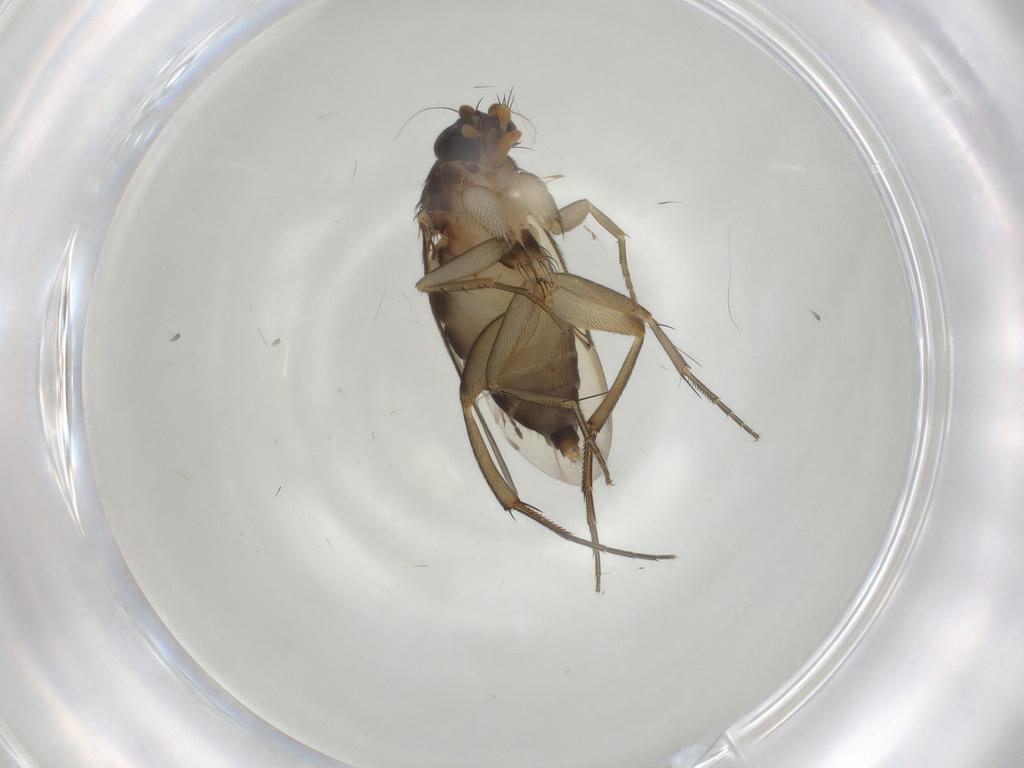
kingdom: Animalia
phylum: Arthropoda
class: Insecta
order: Diptera
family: Phoridae
